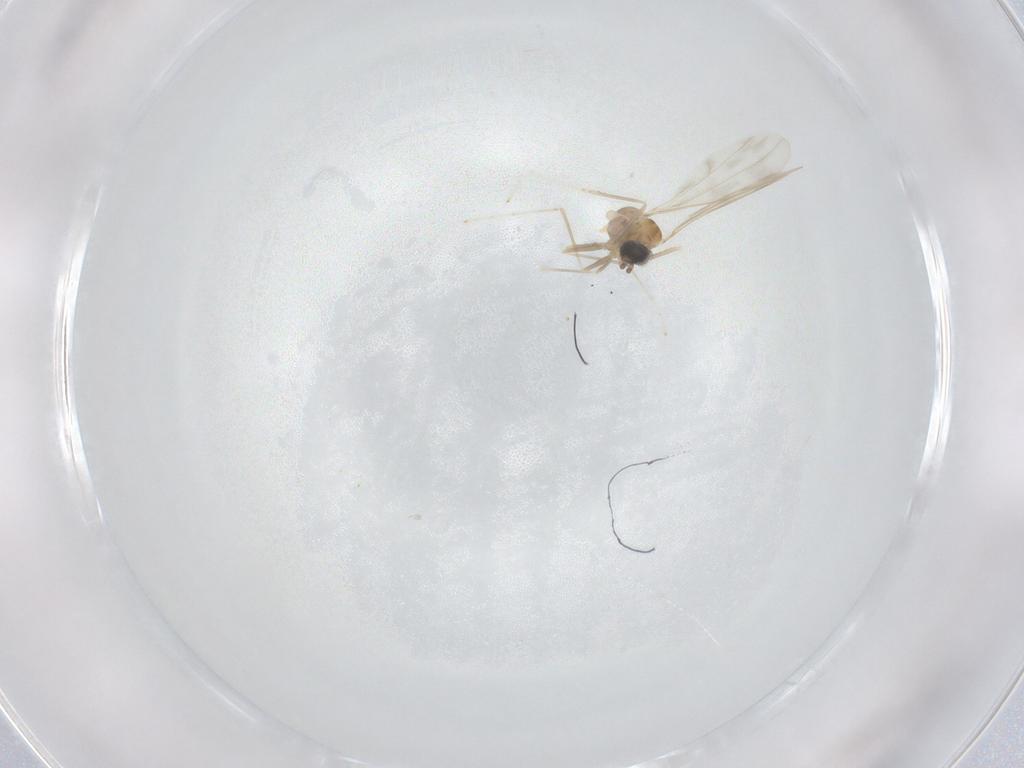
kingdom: Animalia
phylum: Arthropoda
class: Insecta
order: Diptera
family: Cecidomyiidae
